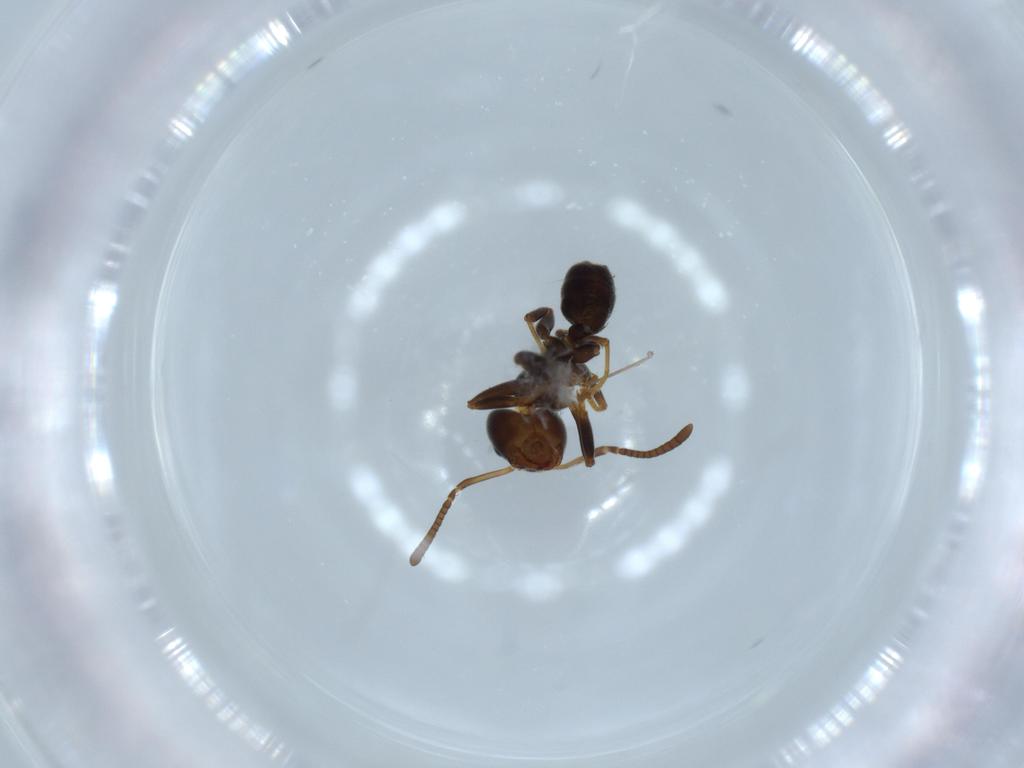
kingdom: Animalia
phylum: Arthropoda
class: Insecta
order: Hymenoptera
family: Formicidae
